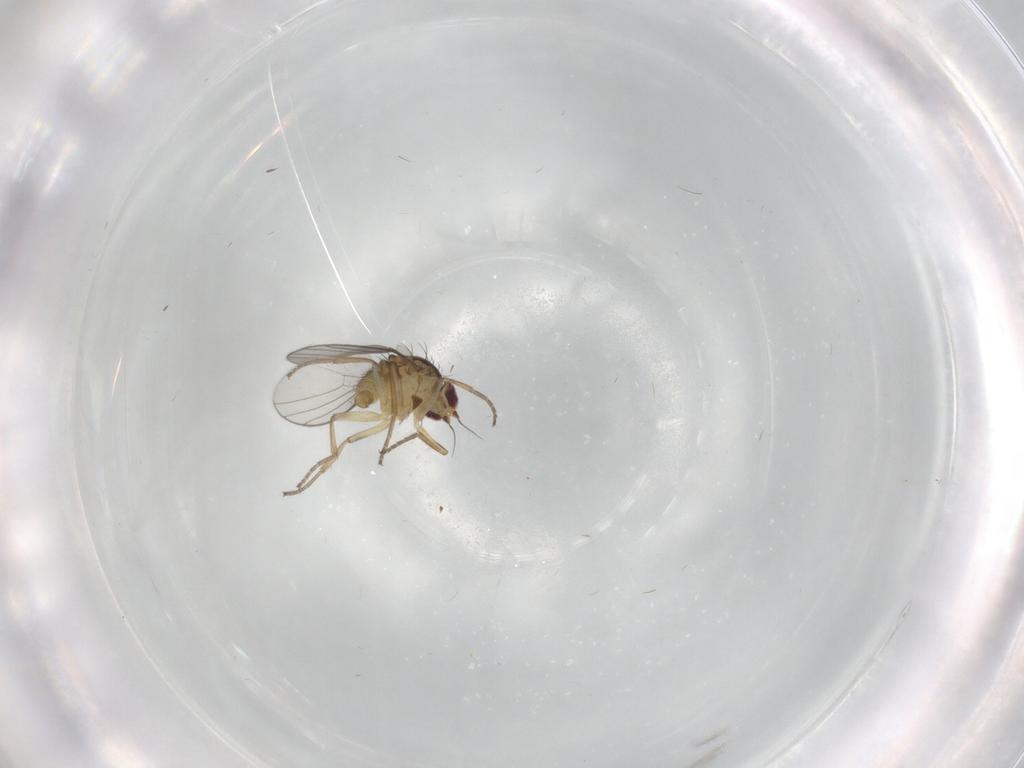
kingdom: Animalia
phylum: Arthropoda
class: Insecta
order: Diptera
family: Agromyzidae
